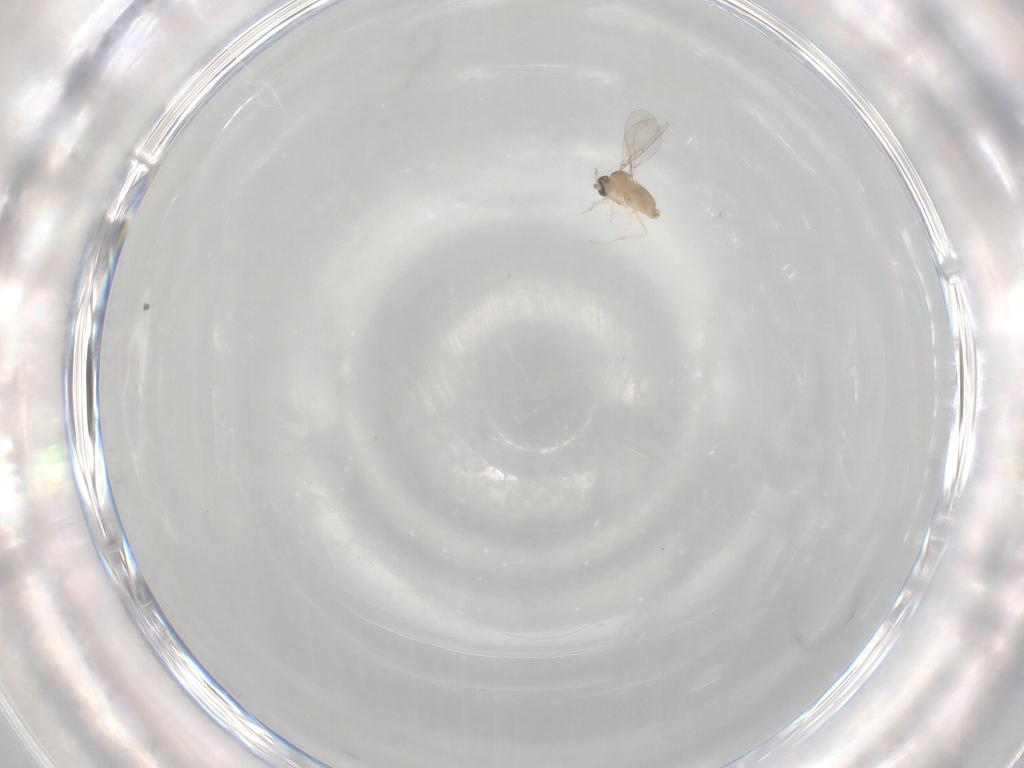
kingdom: Animalia
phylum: Arthropoda
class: Insecta
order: Diptera
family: Cecidomyiidae
